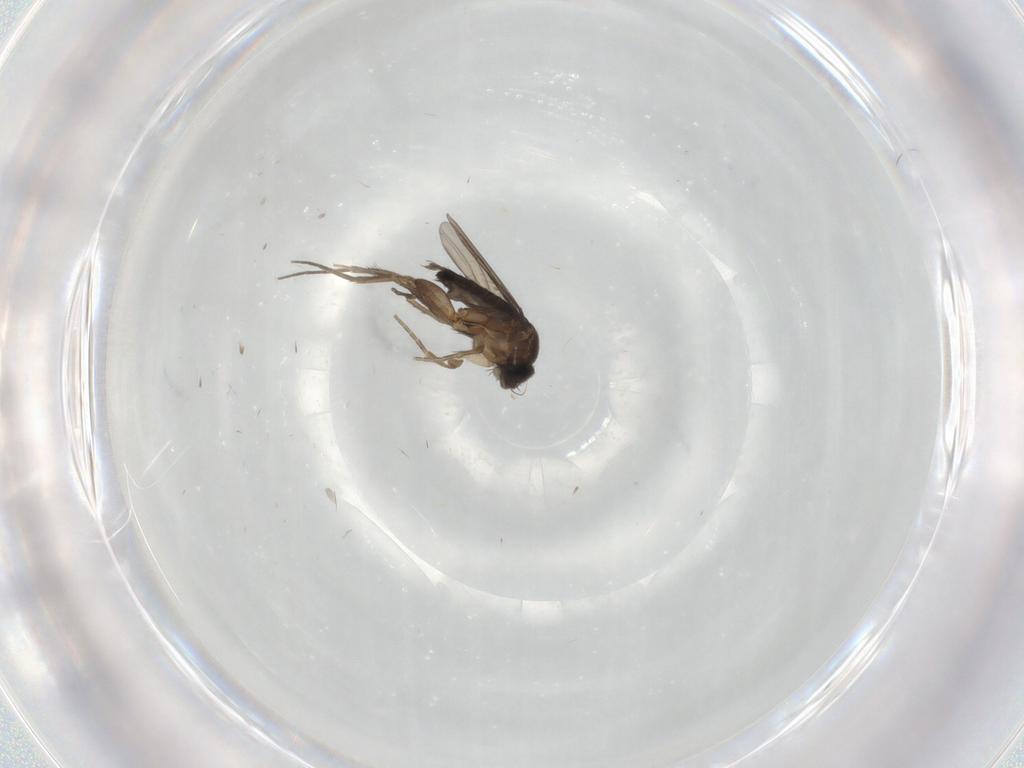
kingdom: Animalia
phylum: Arthropoda
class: Insecta
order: Diptera
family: Phoridae
